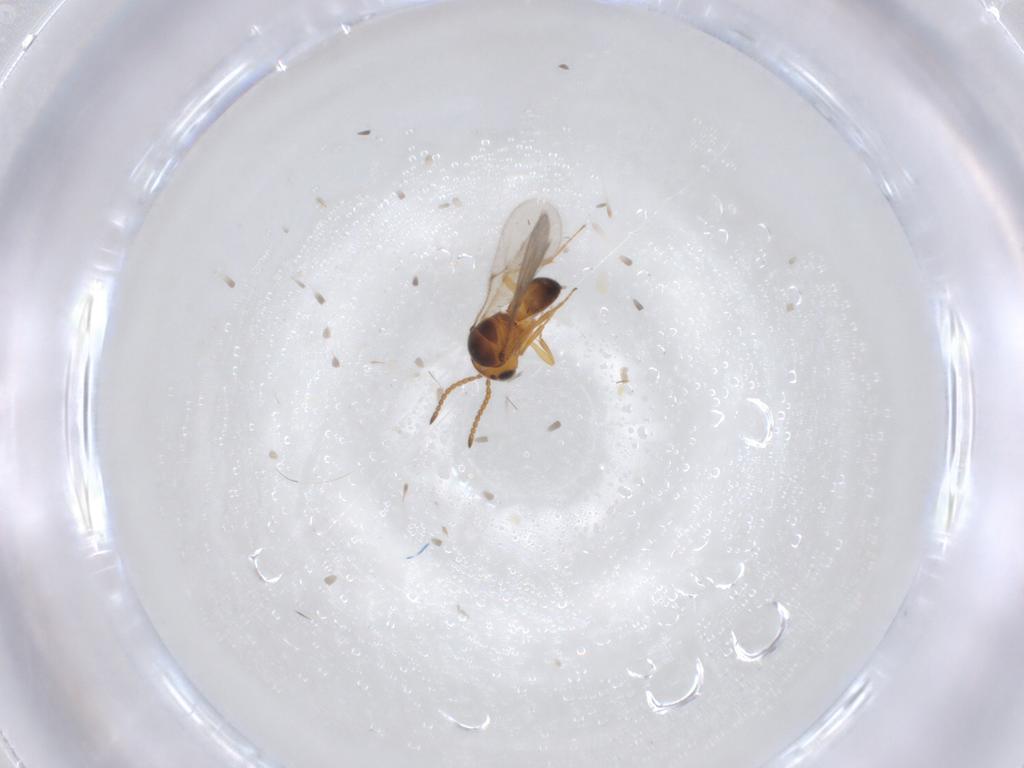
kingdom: Animalia
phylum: Arthropoda
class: Insecta
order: Hymenoptera
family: Scelionidae
